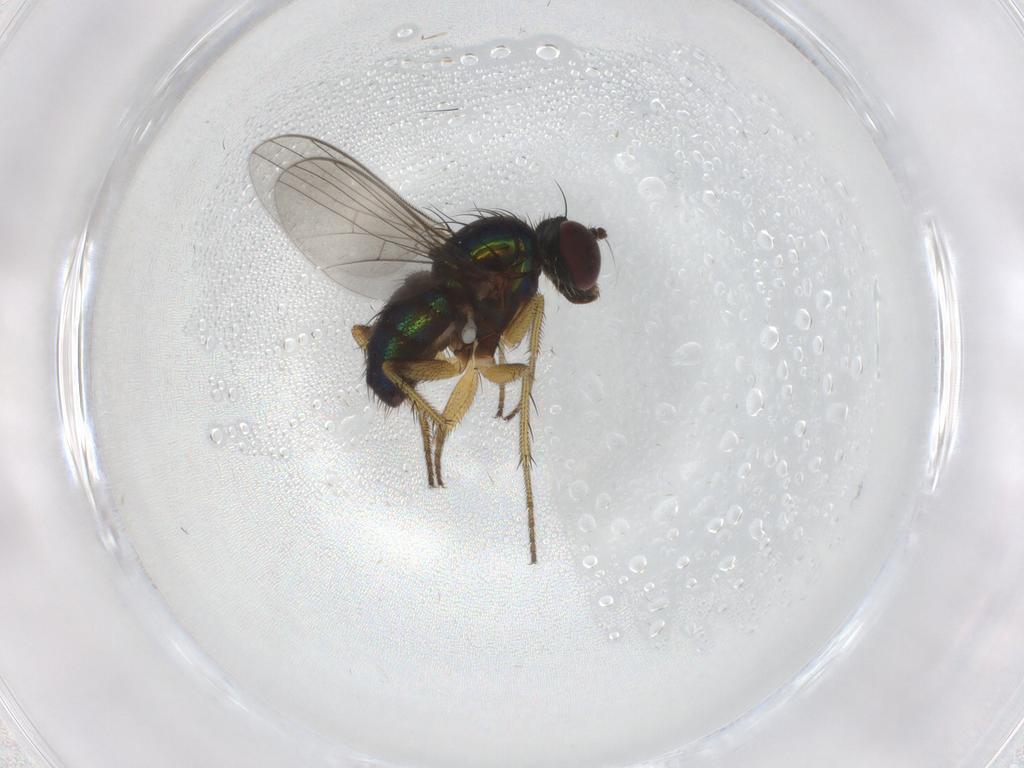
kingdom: Animalia
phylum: Arthropoda
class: Insecta
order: Diptera
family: Dolichopodidae
